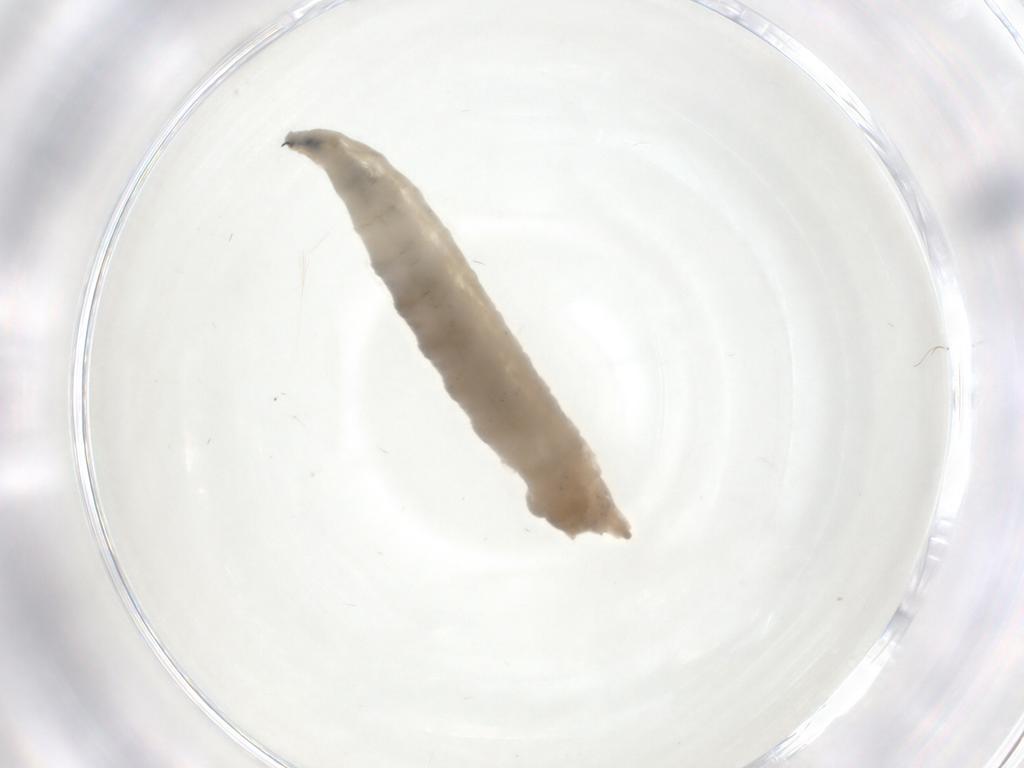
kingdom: Animalia
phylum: Arthropoda
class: Insecta
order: Diptera
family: Drosophilidae
